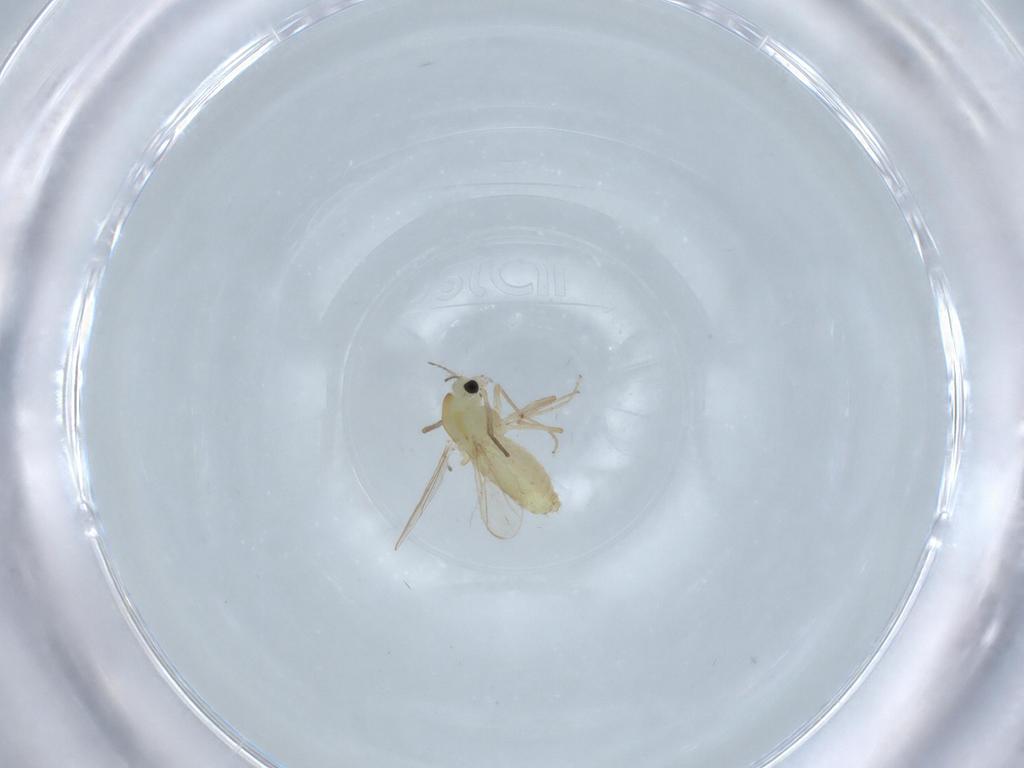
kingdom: Animalia
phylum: Arthropoda
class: Insecta
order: Diptera
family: Chironomidae
